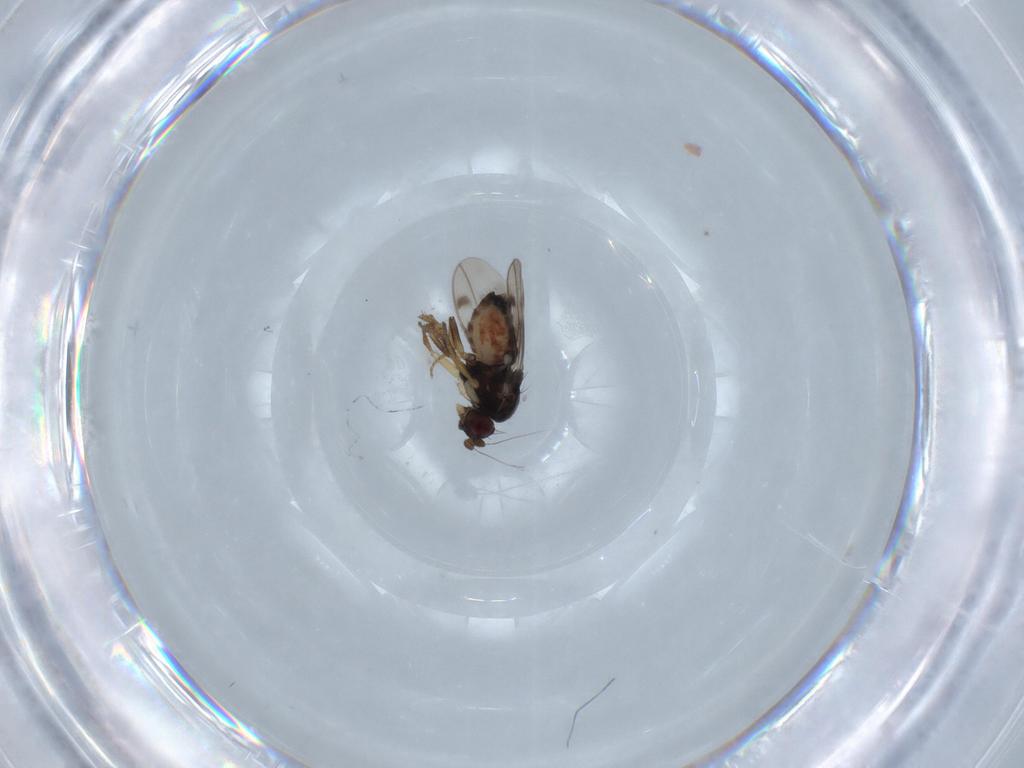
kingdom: Animalia
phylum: Arthropoda
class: Insecta
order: Diptera
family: Sphaeroceridae
